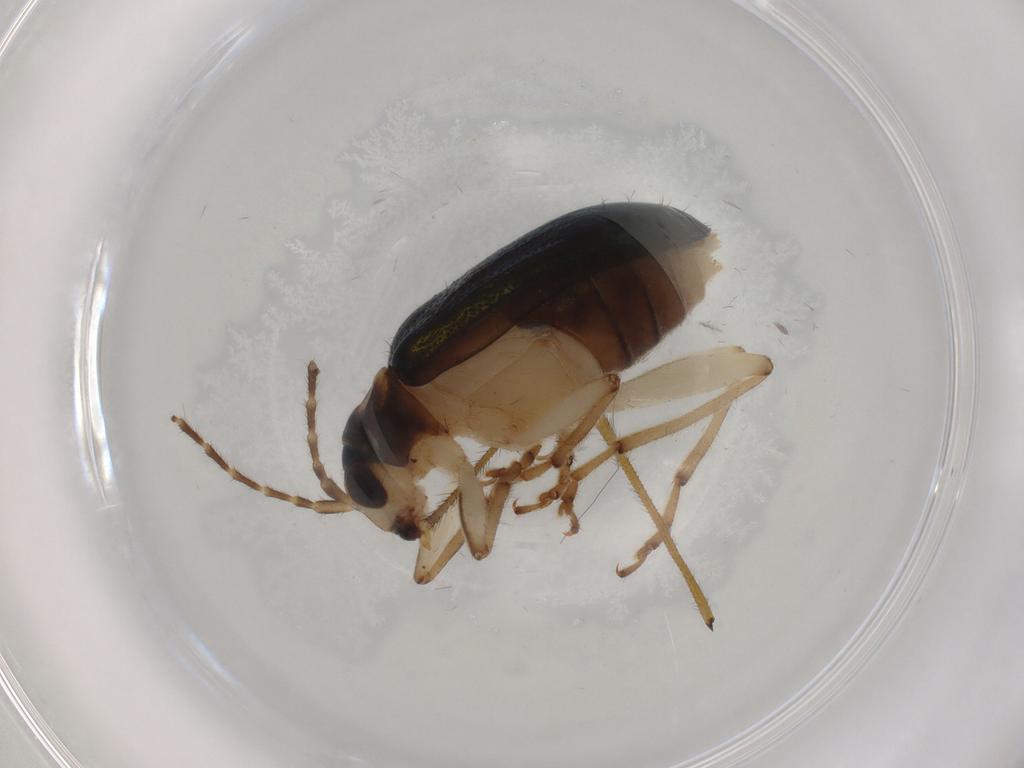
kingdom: Animalia
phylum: Arthropoda
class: Insecta
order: Coleoptera
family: Chrysomelidae
